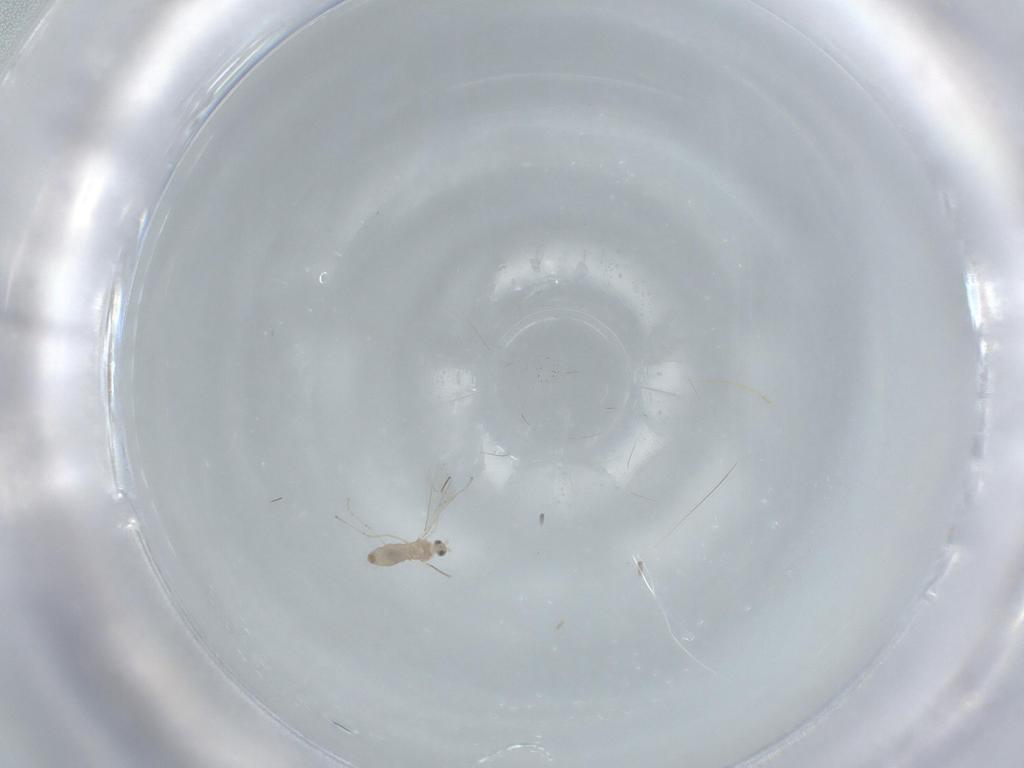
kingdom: Animalia
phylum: Arthropoda
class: Insecta
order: Diptera
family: Cecidomyiidae
